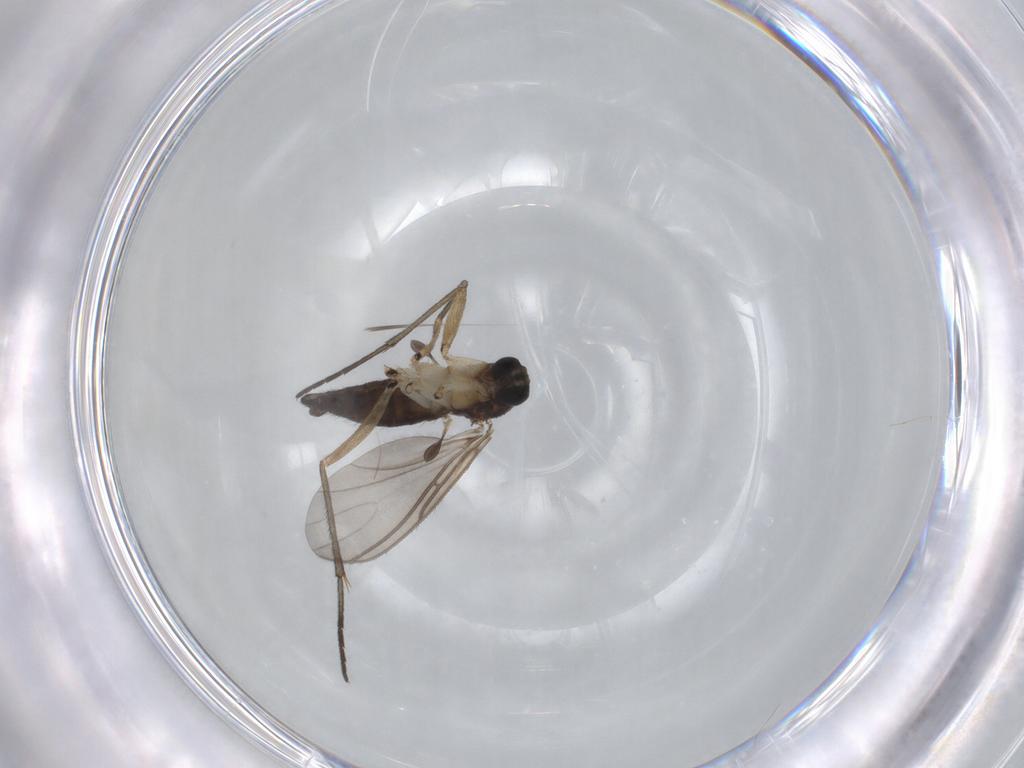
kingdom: Animalia
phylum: Arthropoda
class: Insecta
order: Diptera
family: Sciaridae
